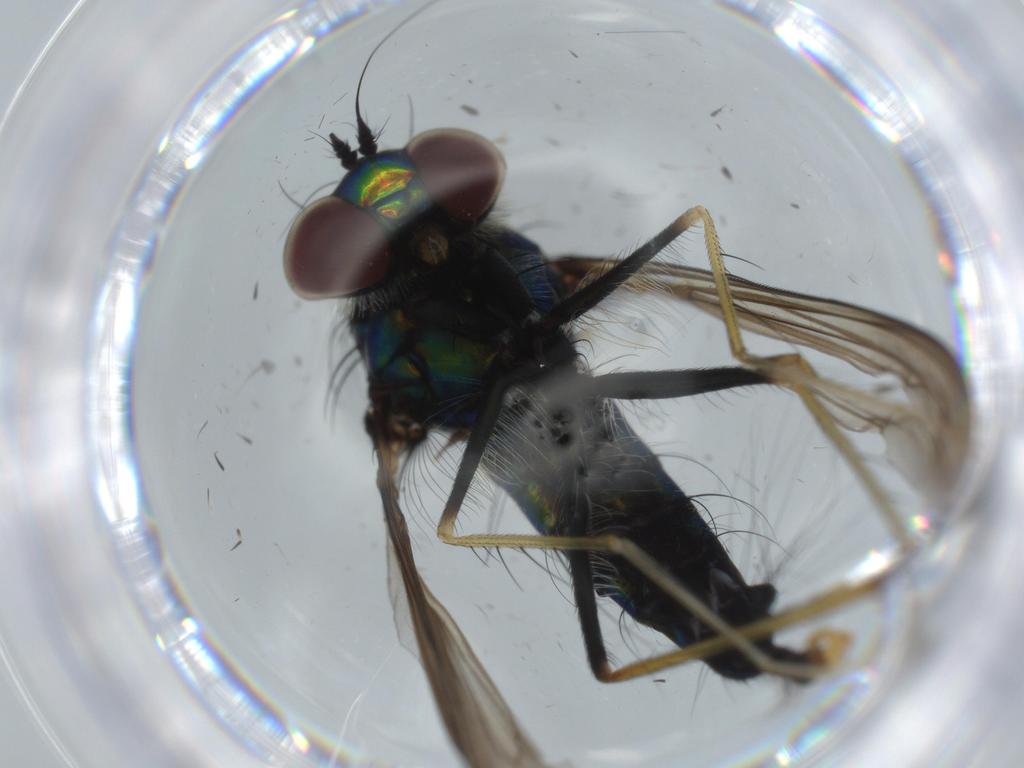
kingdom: Animalia
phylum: Arthropoda
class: Insecta
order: Diptera
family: Dolichopodidae
